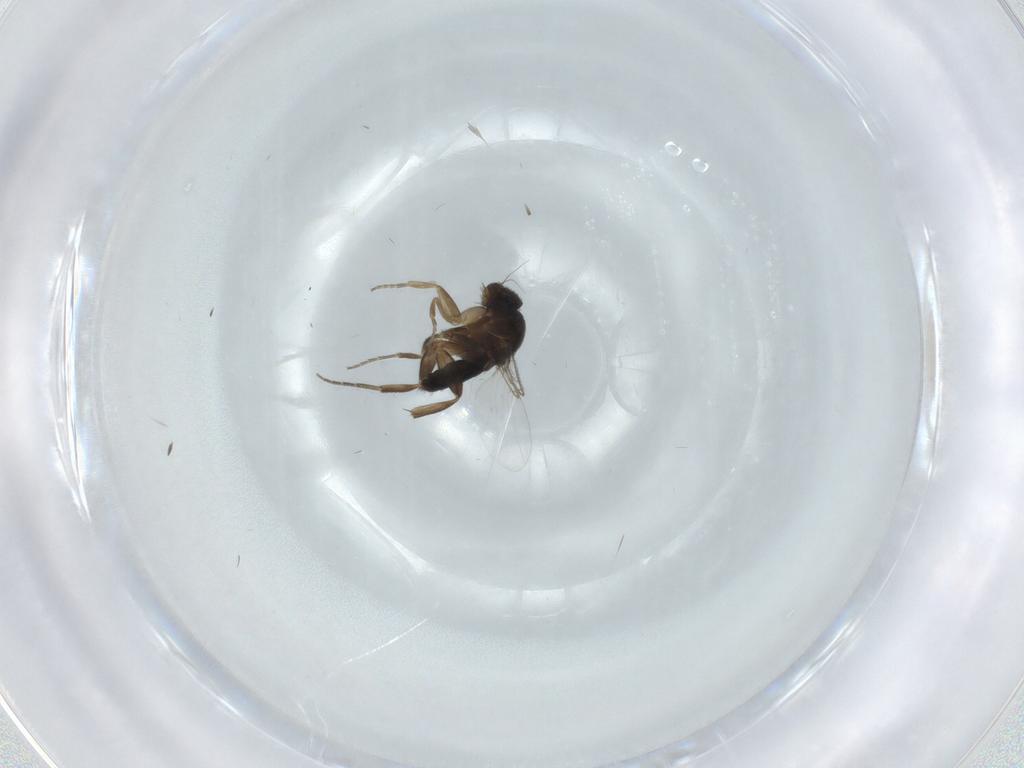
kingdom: Animalia
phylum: Arthropoda
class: Insecta
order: Diptera
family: Phoridae
